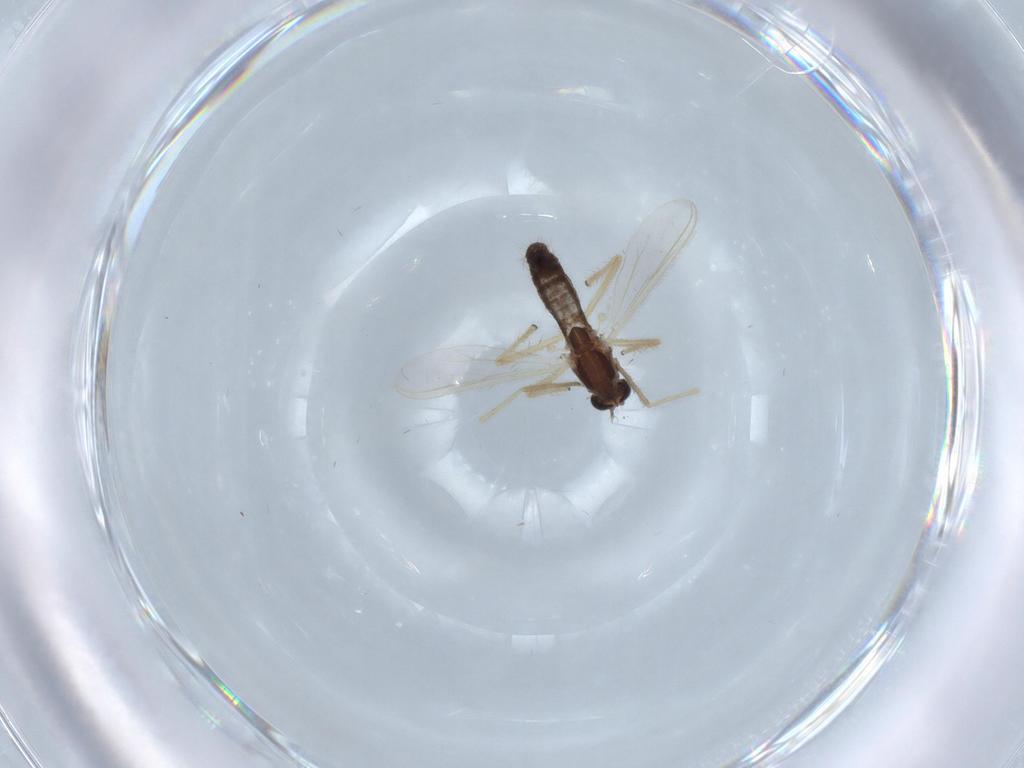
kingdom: Animalia
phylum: Arthropoda
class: Insecta
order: Diptera
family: Chironomidae
